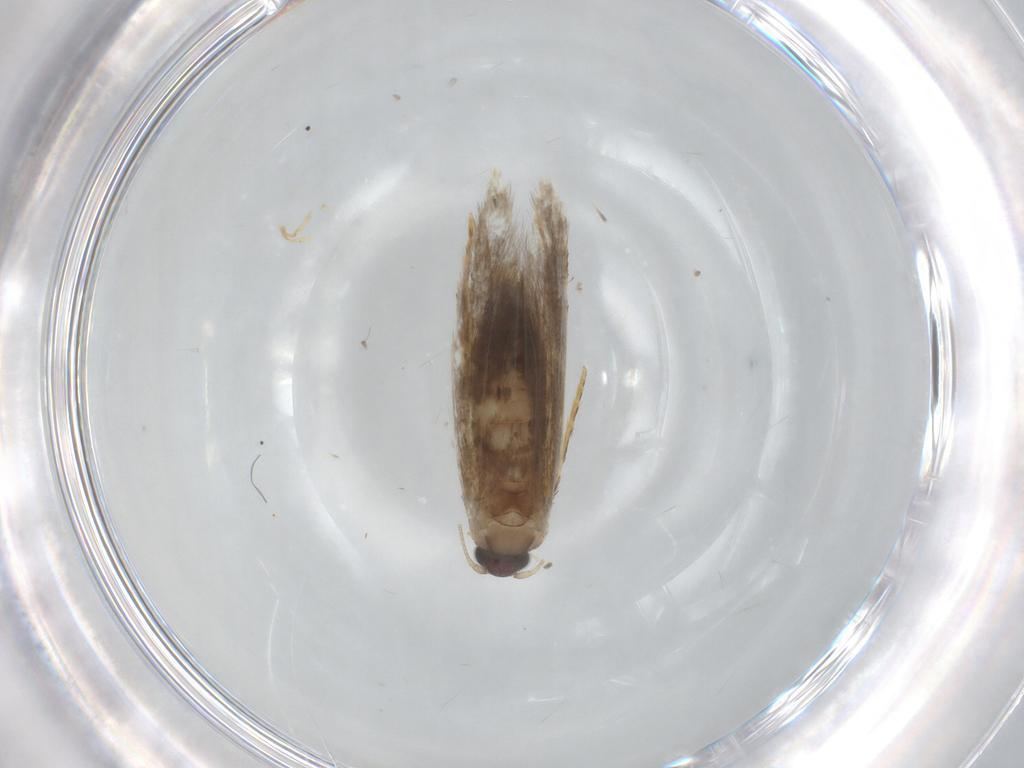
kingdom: Animalia
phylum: Arthropoda
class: Insecta
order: Lepidoptera
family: Tineidae
